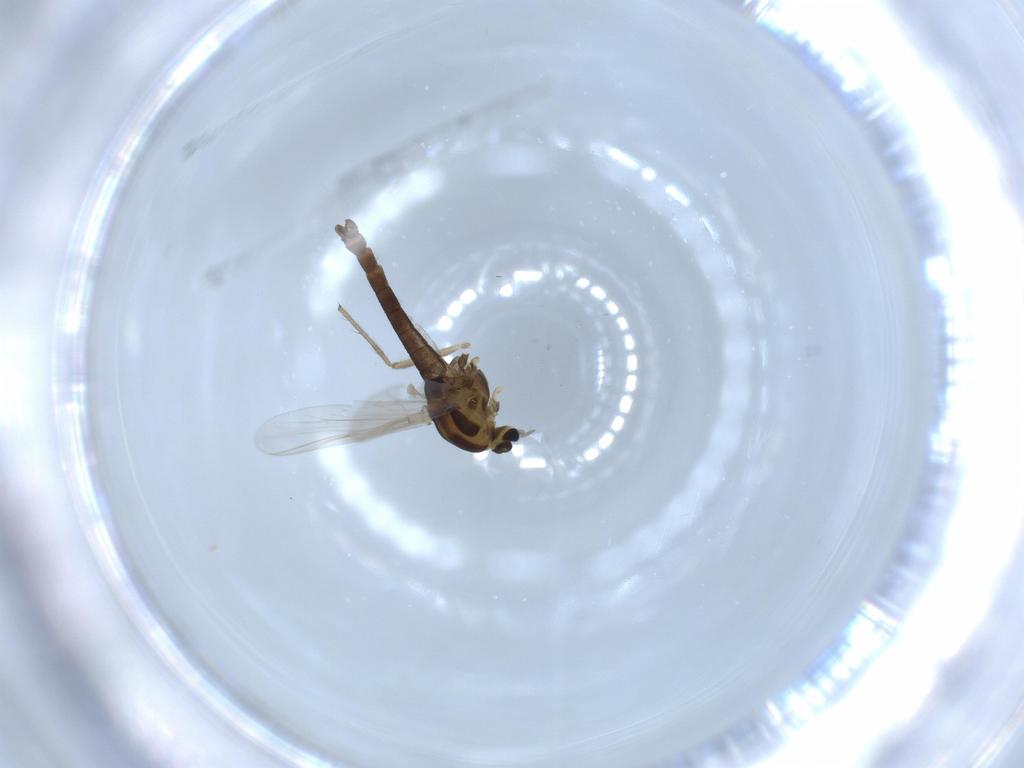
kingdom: Animalia
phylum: Arthropoda
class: Insecta
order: Diptera
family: Chironomidae
